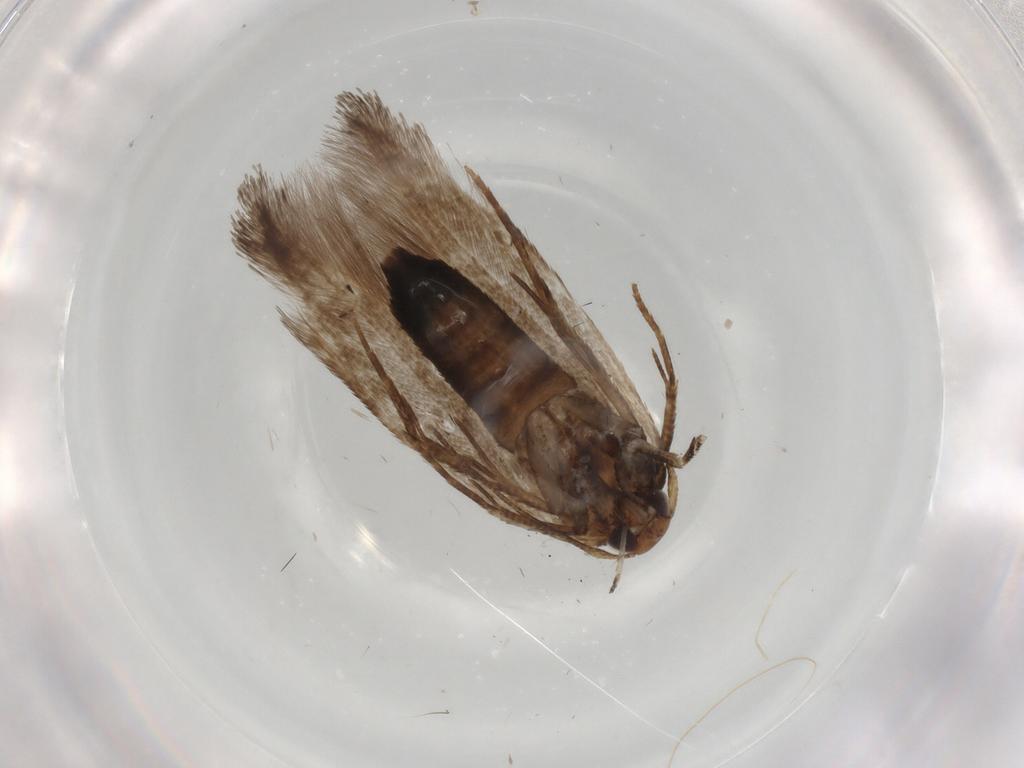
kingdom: Animalia
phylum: Arthropoda
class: Insecta
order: Lepidoptera
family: Cosmopterigidae
